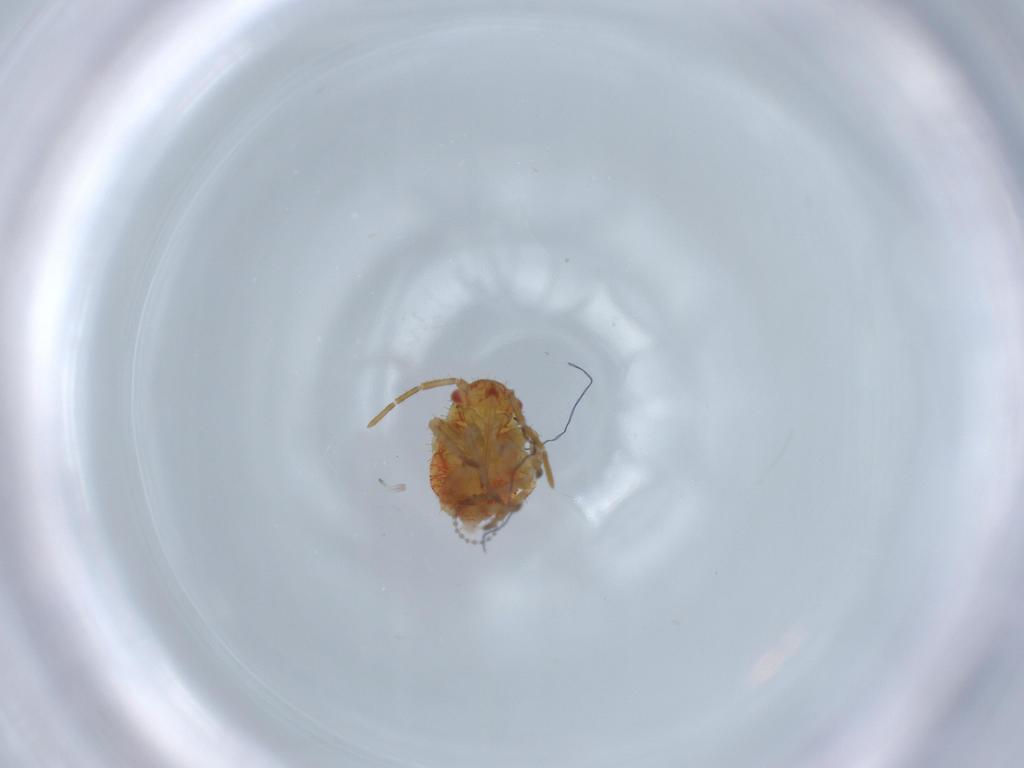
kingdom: Animalia
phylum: Arthropoda
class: Insecta
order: Hemiptera
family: Miridae
